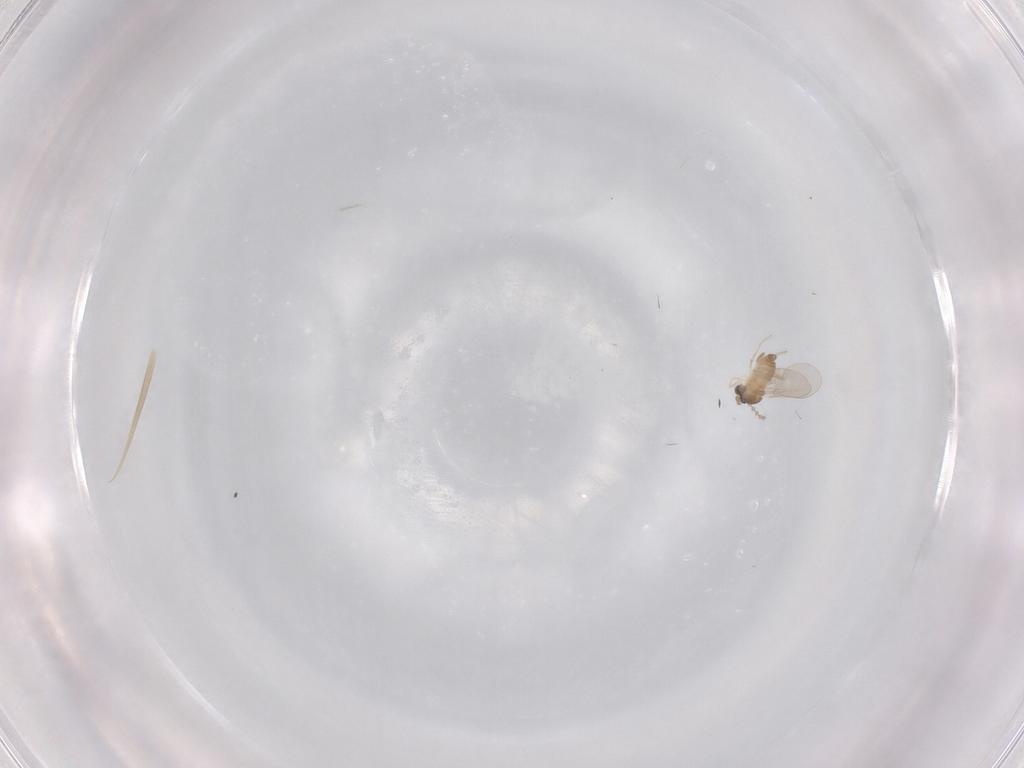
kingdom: Animalia
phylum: Arthropoda
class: Insecta
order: Diptera
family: Cecidomyiidae
